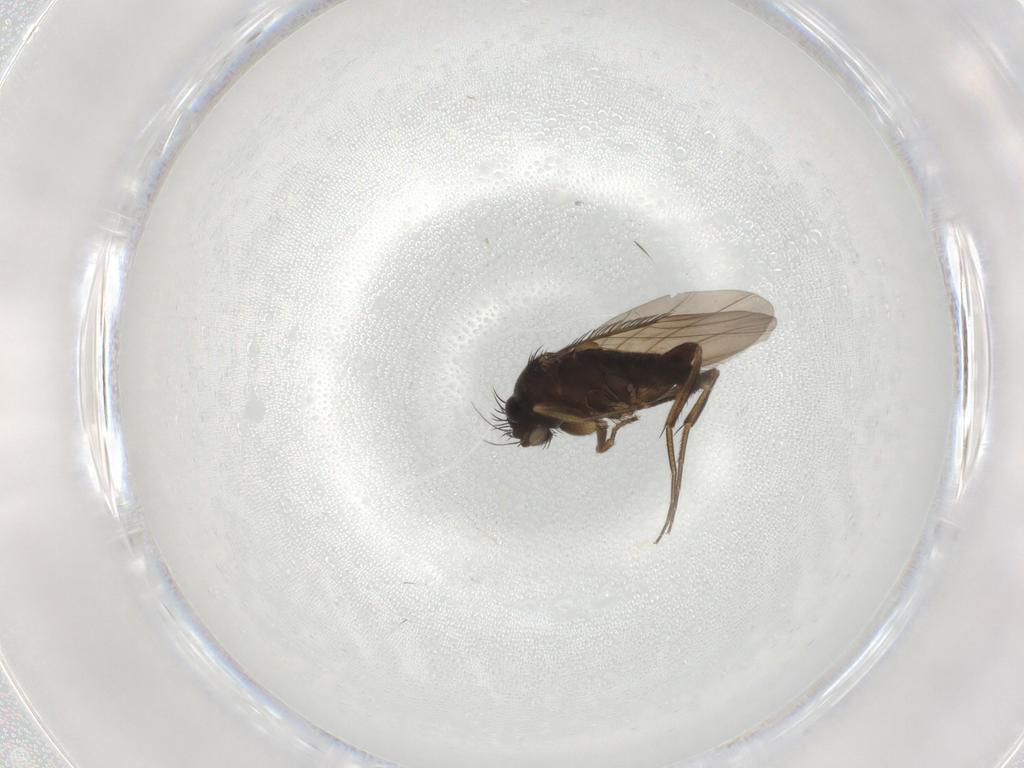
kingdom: Animalia
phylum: Arthropoda
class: Insecta
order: Diptera
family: Phoridae
